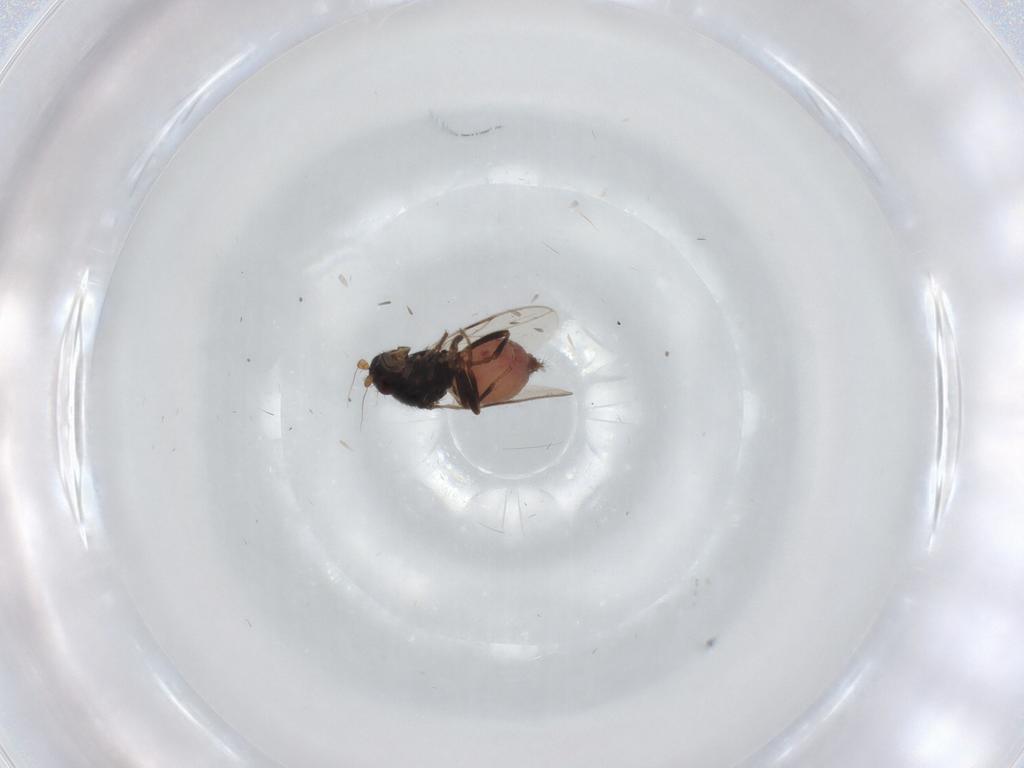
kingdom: Animalia
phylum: Arthropoda
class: Insecta
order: Diptera
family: Sphaeroceridae
